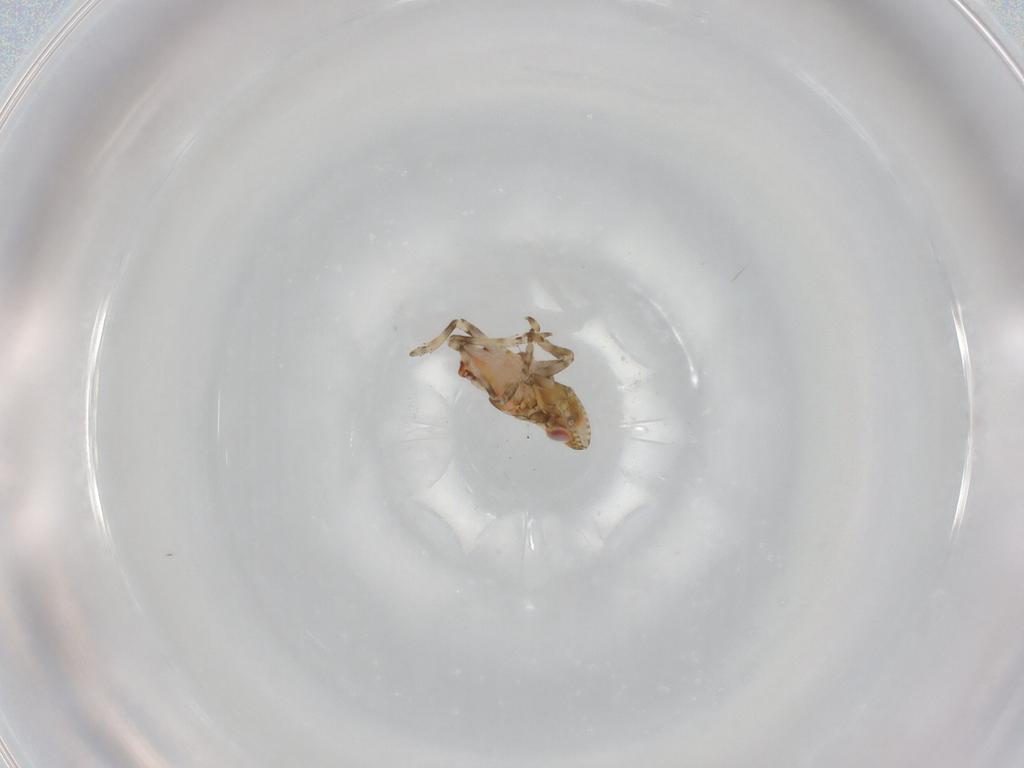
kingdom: Animalia
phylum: Arthropoda
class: Insecta
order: Hemiptera
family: Tropiduchidae
